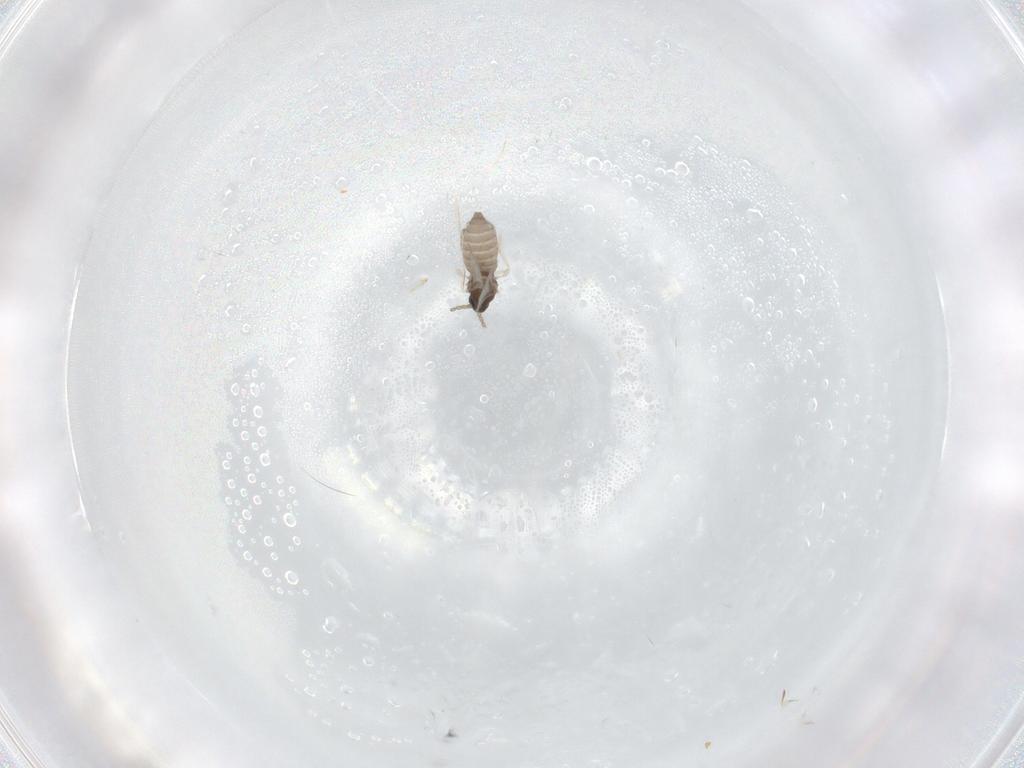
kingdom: Animalia
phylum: Arthropoda
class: Insecta
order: Diptera
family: Cecidomyiidae
